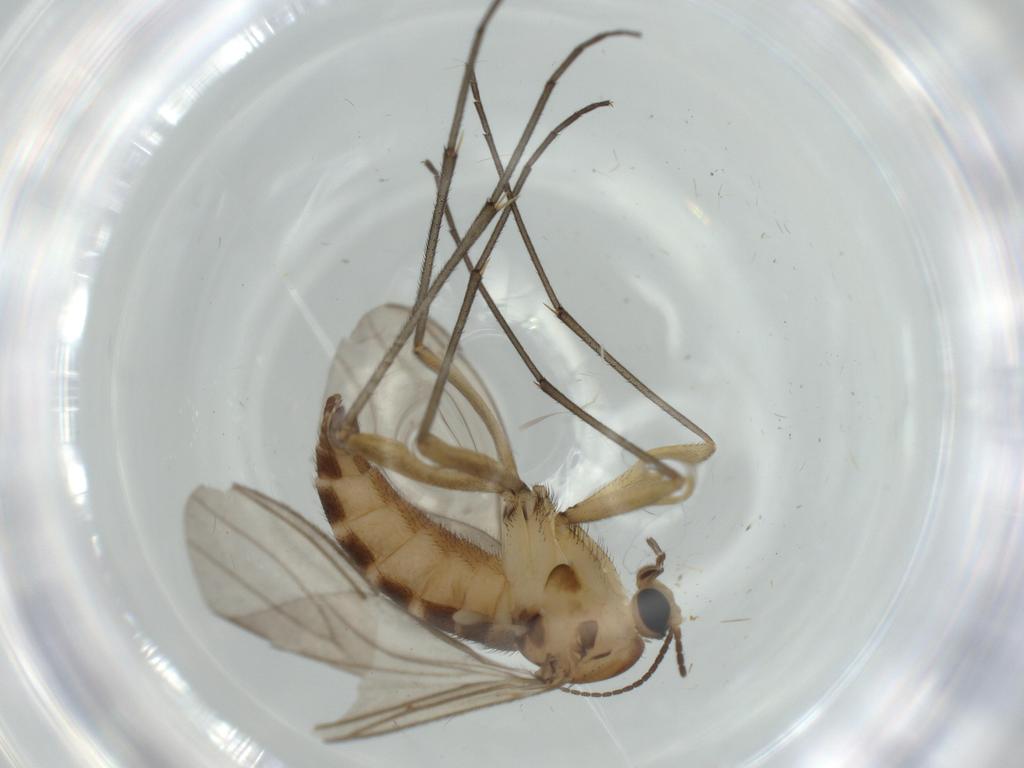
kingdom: Animalia
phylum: Arthropoda
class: Insecta
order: Diptera
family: Sciaridae
